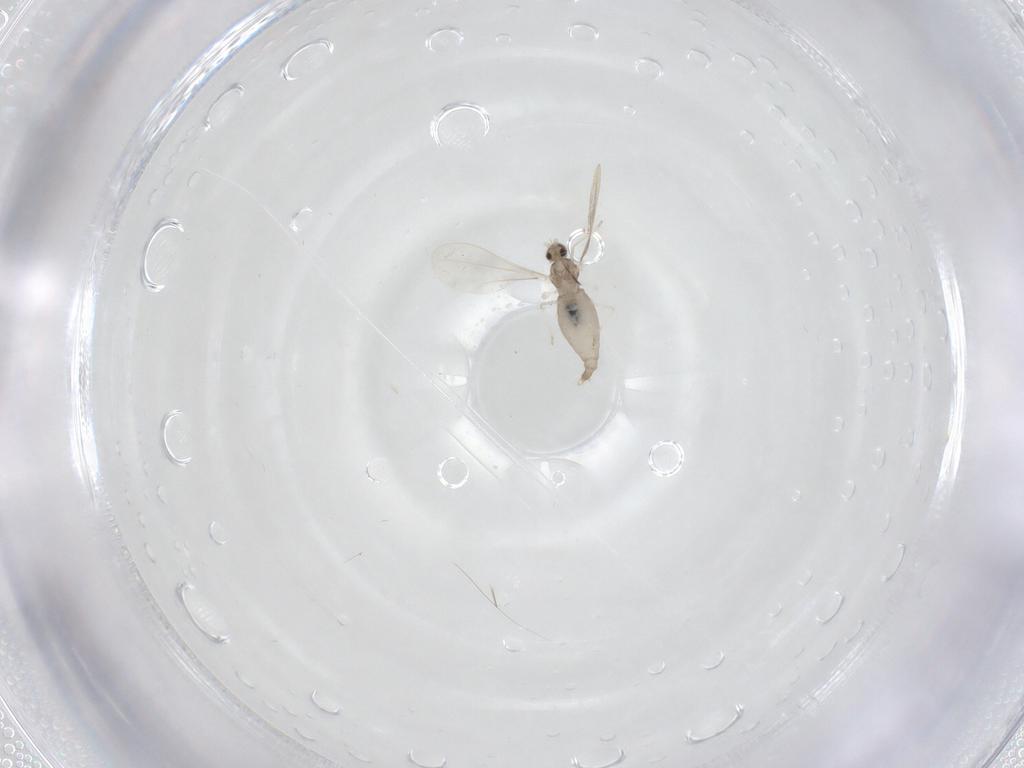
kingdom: Animalia
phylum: Arthropoda
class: Insecta
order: Diptera
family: Cecidomyiidae
